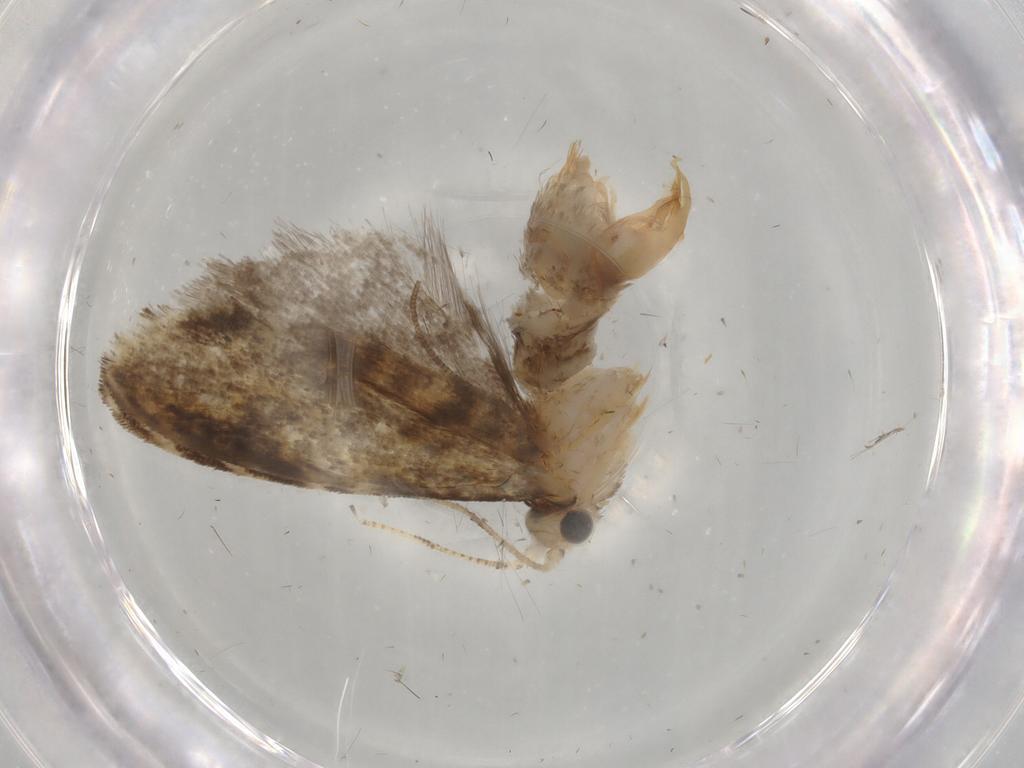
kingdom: Animalia
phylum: Arthropoda
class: Insecta
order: Lepidoptera
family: Tineidae
